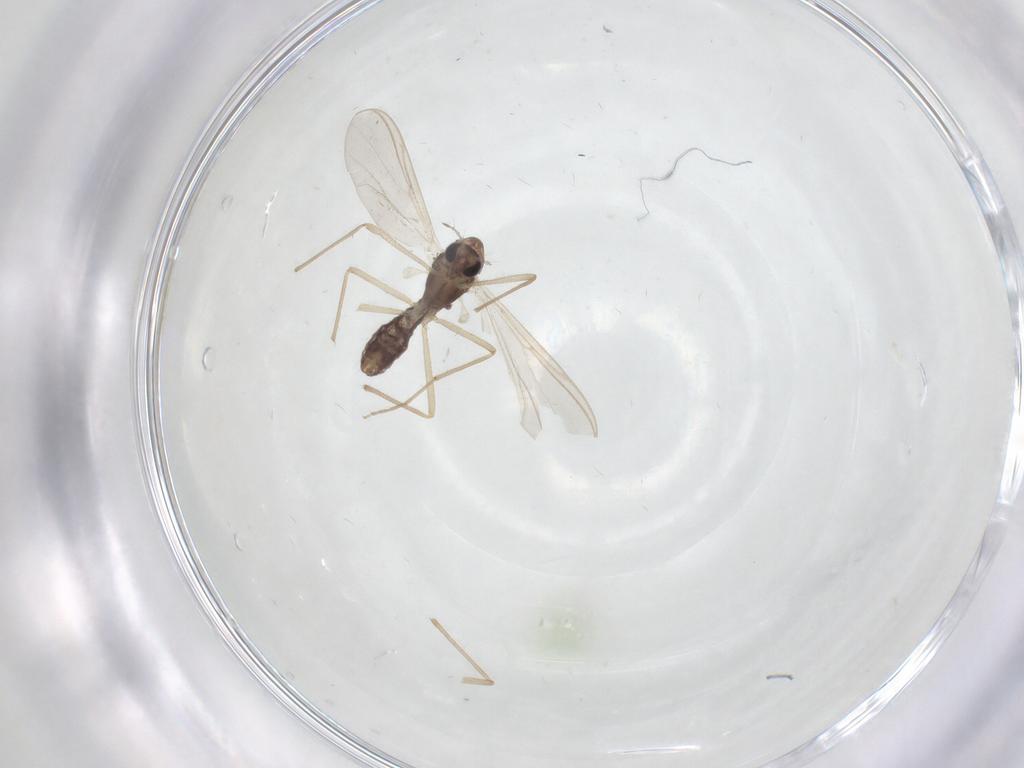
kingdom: Animalia
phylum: Arthropoda
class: Insecta
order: Diptera
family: Chironomidae
